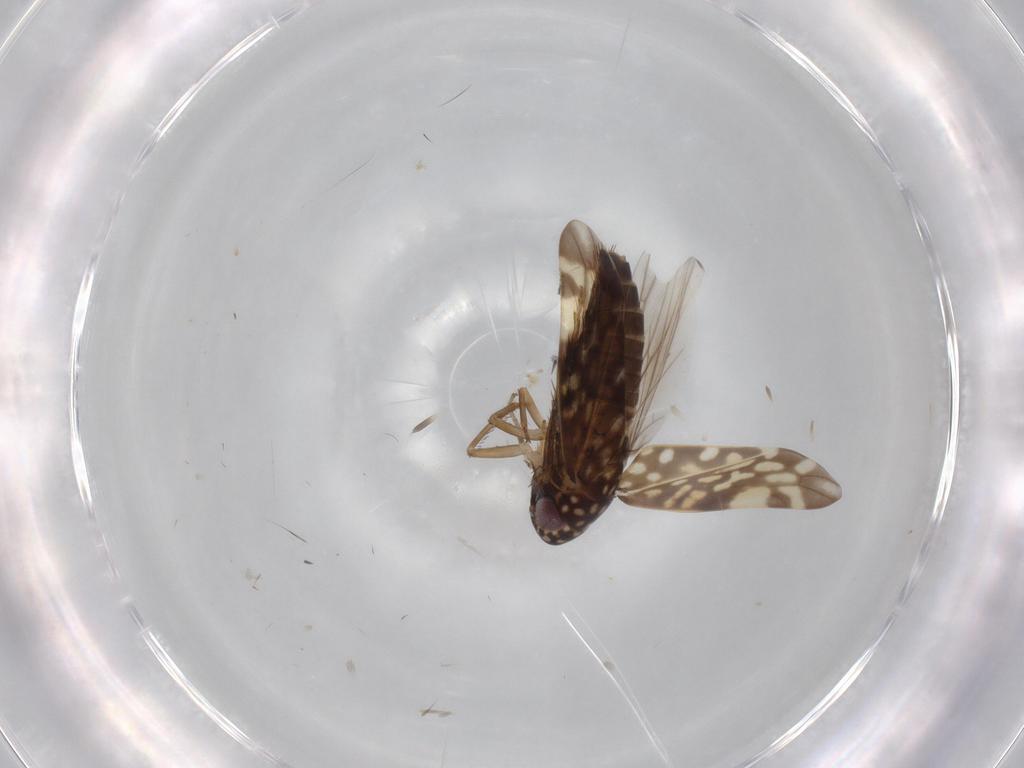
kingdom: Animalia
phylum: Arthropoda
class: Insecta
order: Hemiptera
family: Cicadellidae
